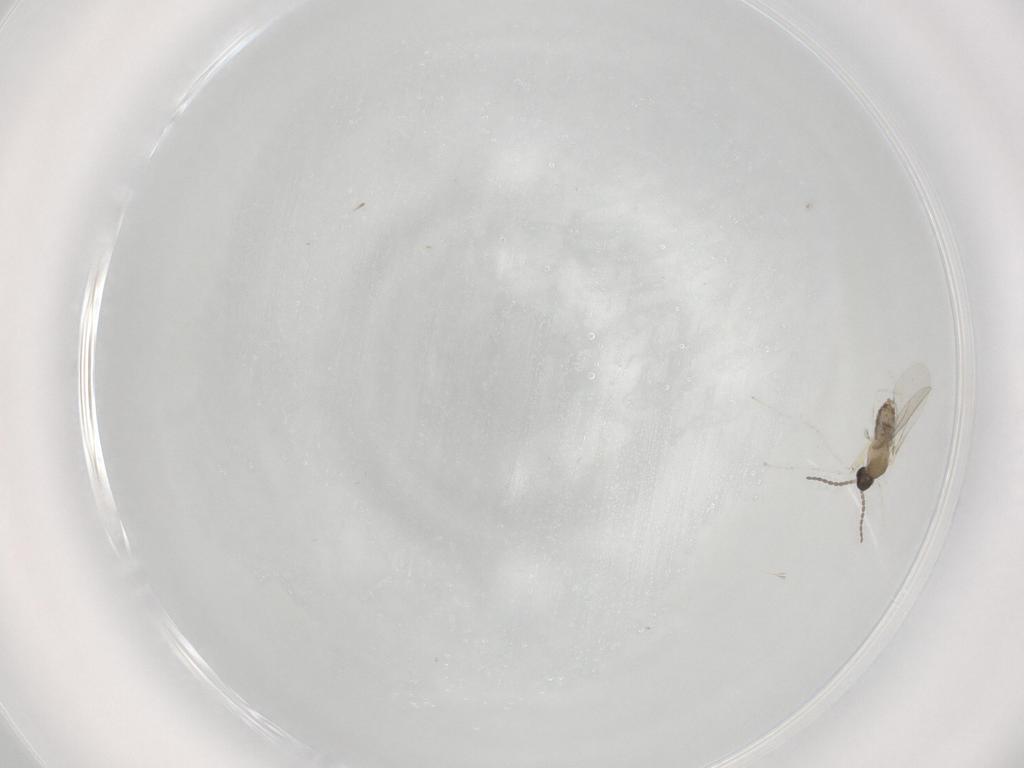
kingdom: Animalia
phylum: Arthropoda
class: Insecta
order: Diptera
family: Cecidomyiidae
